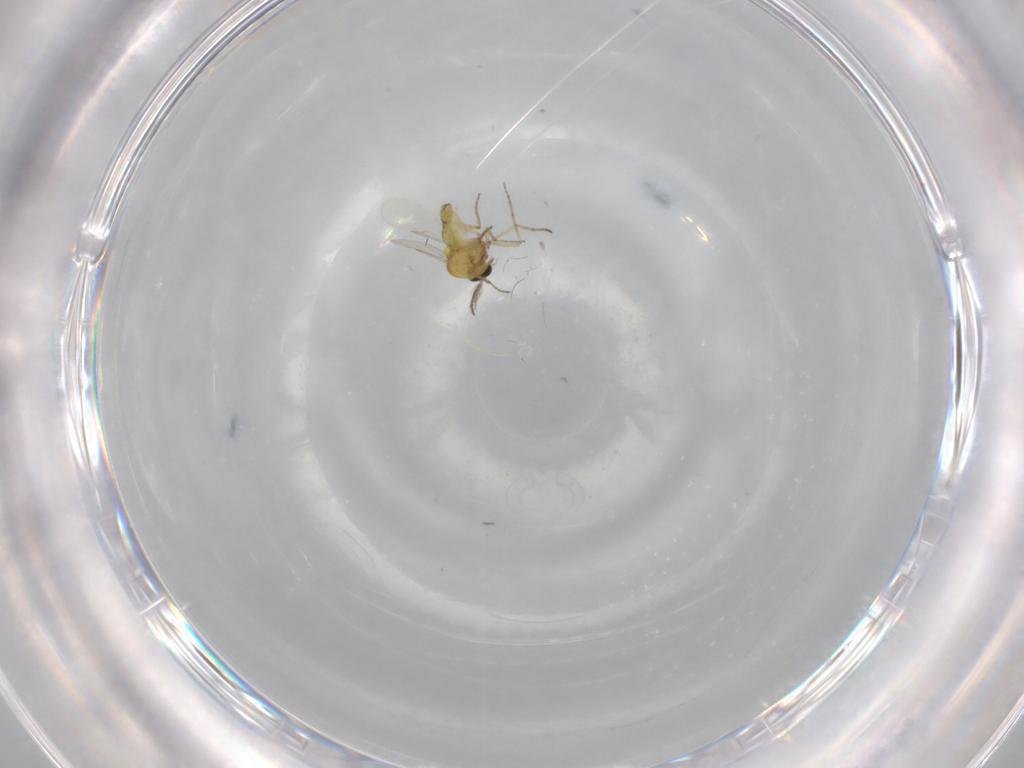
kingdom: Animalia
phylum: Arthropoda
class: Insecta
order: Diptera
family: Ceratopogonidae
